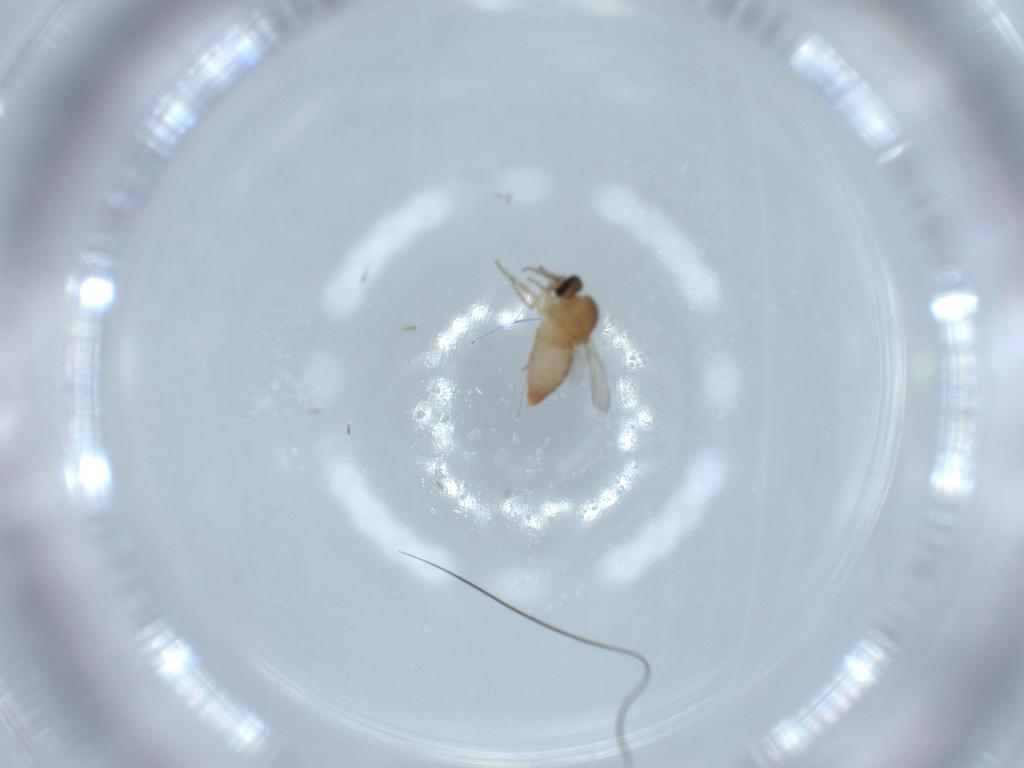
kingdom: Animalia
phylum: Arthropoda
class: Insecta
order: Diptera
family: Ceratopogonidae
